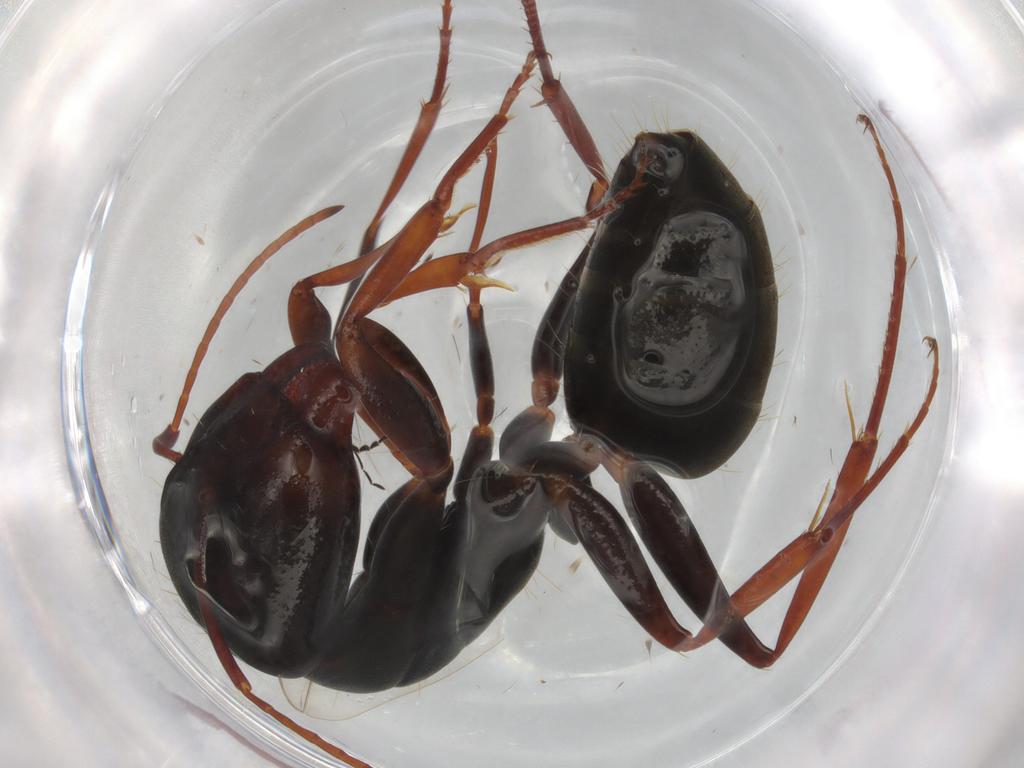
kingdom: Animalia
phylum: Arthropoda
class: Insecta
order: Hymenoptera
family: Formicidae
